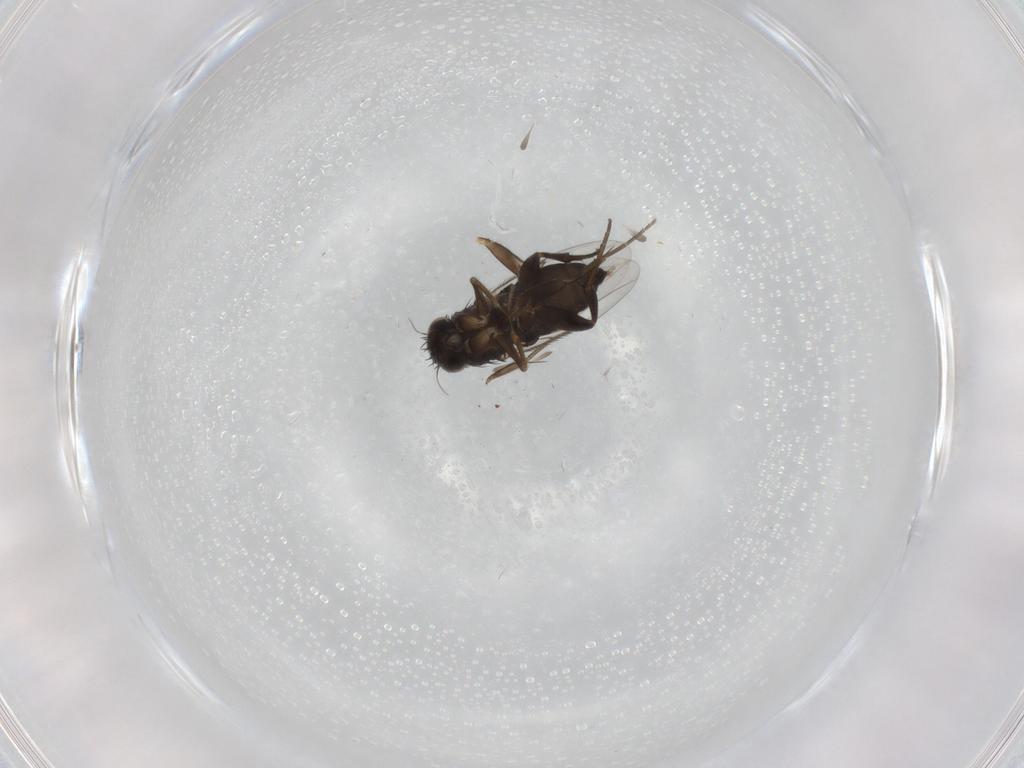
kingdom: Animalia
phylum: Arthropoda
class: Insecta
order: Diptera
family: Phoridae
